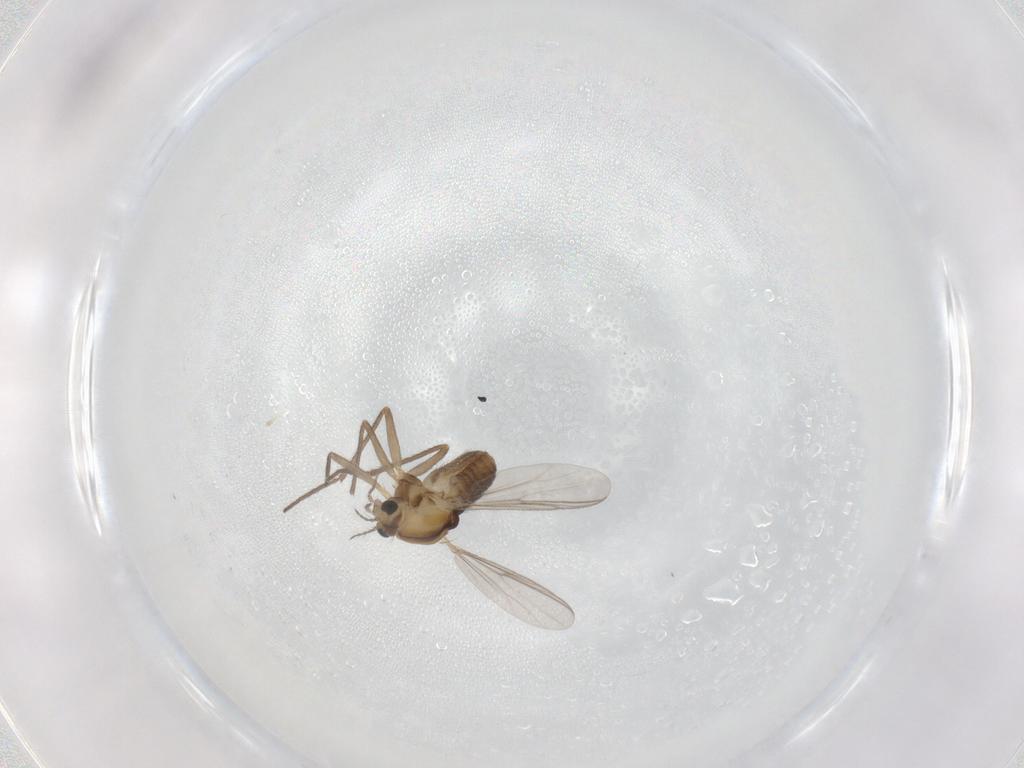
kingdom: Animalia
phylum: Arthropoda
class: Insecta
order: Diptera
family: Chironomidae
